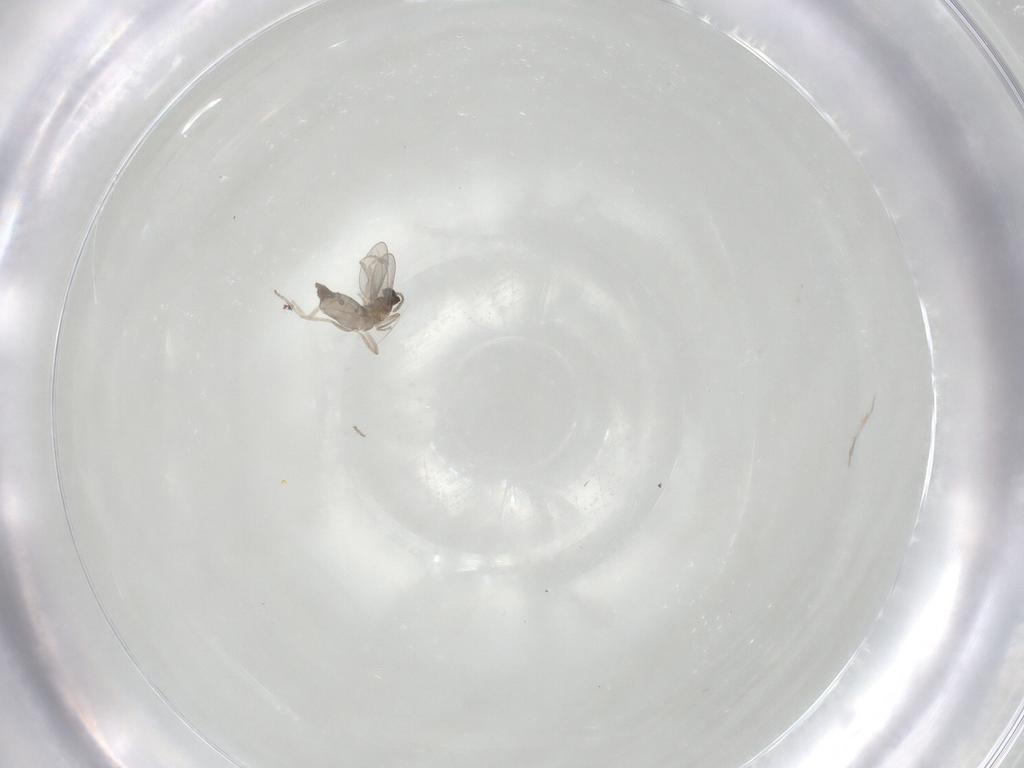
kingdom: Animalia
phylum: Arthropoda
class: Insecta
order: Diptera
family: Cecidomyiidae
